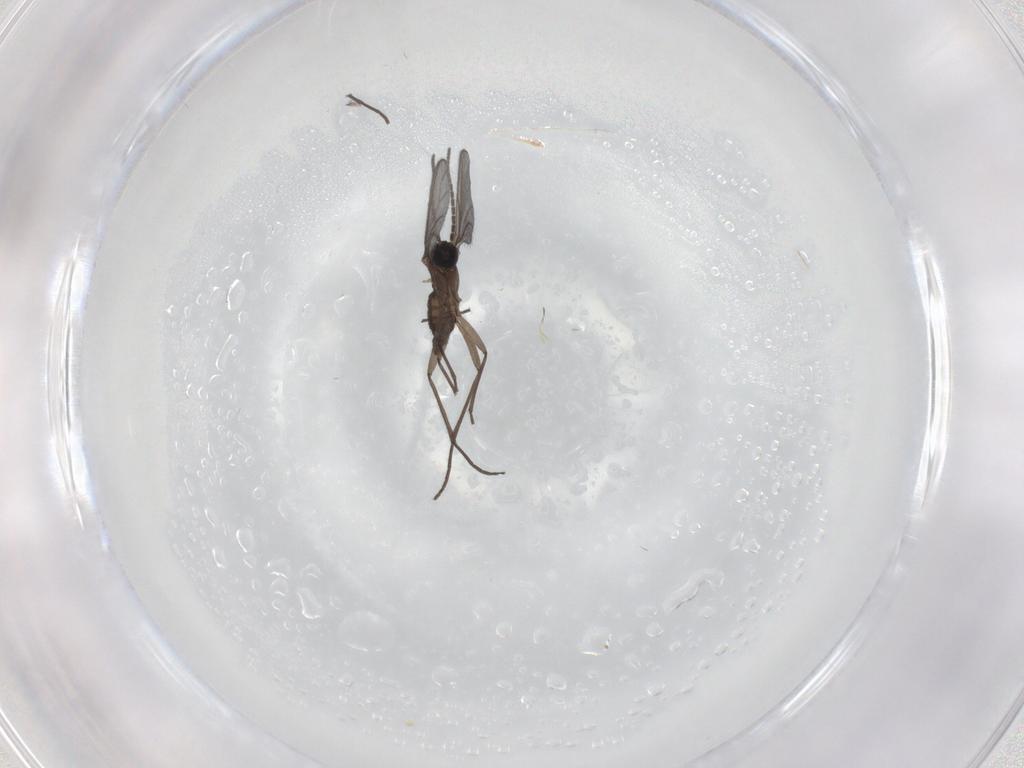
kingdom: Animalia
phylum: Arthropoda
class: Insecta
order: Diptera
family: Sciaridae
